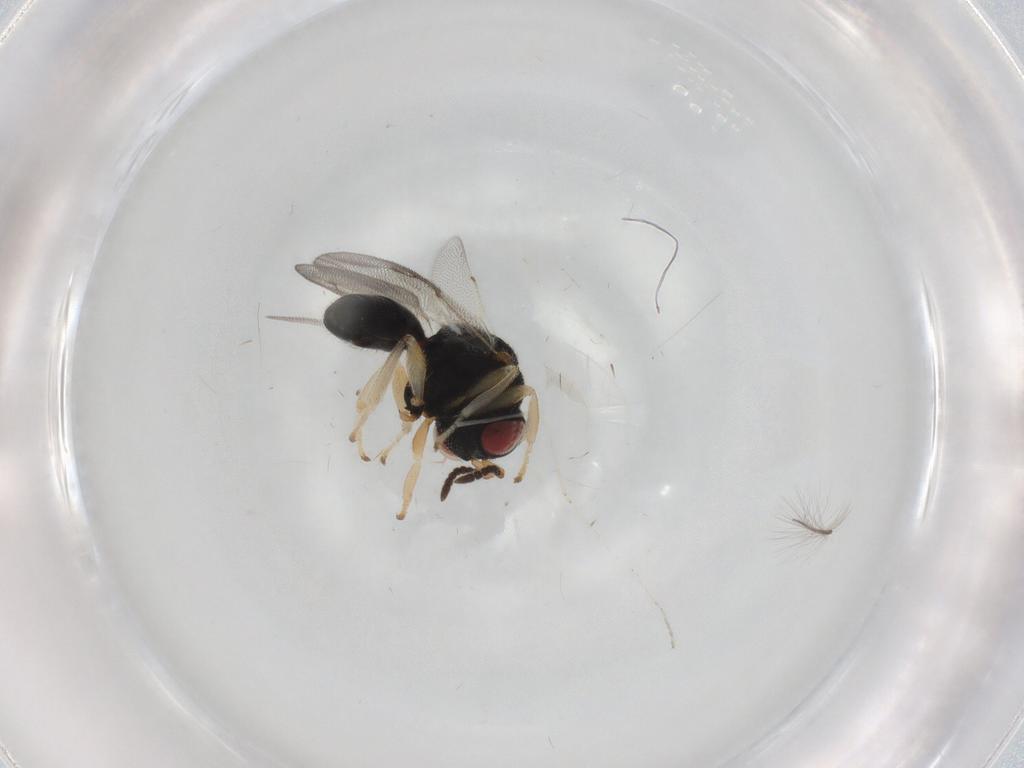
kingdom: Animalia
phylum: Arthropoda
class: Insecta
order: Hymenoptera
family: Eurytomidae
